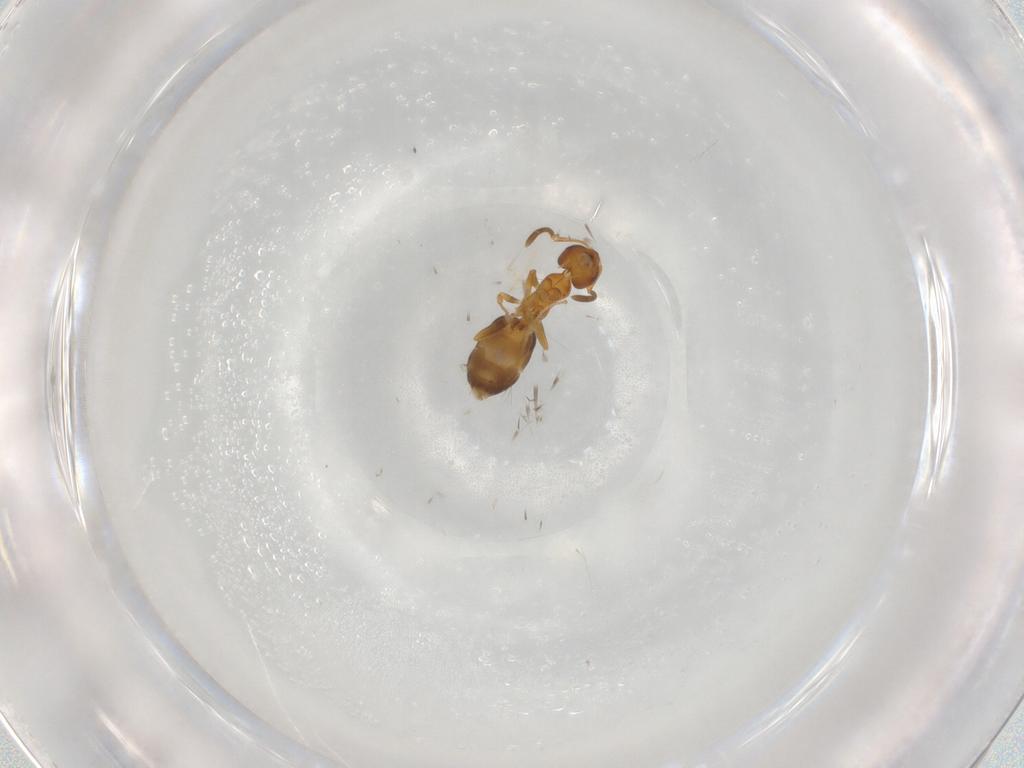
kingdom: Animalia
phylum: Arthropoda
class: Insecta
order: Hymenoptera
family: Formicidae
